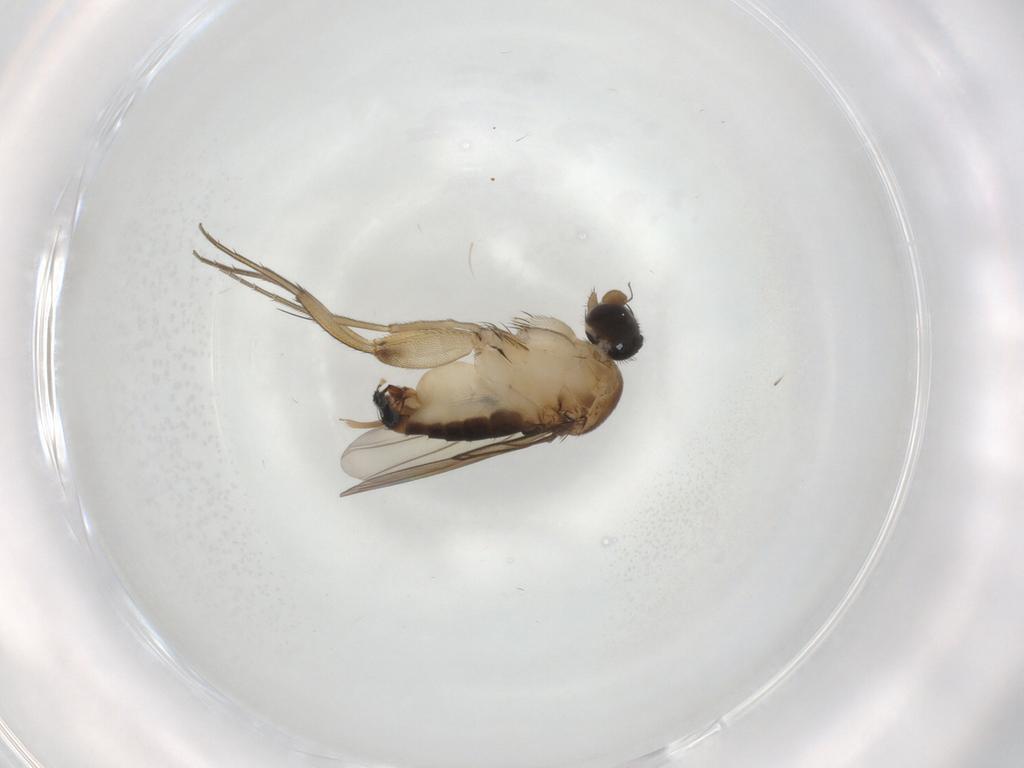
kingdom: Animalia
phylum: Arthropoda
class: Insecta
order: Diptera
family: Phoridae
